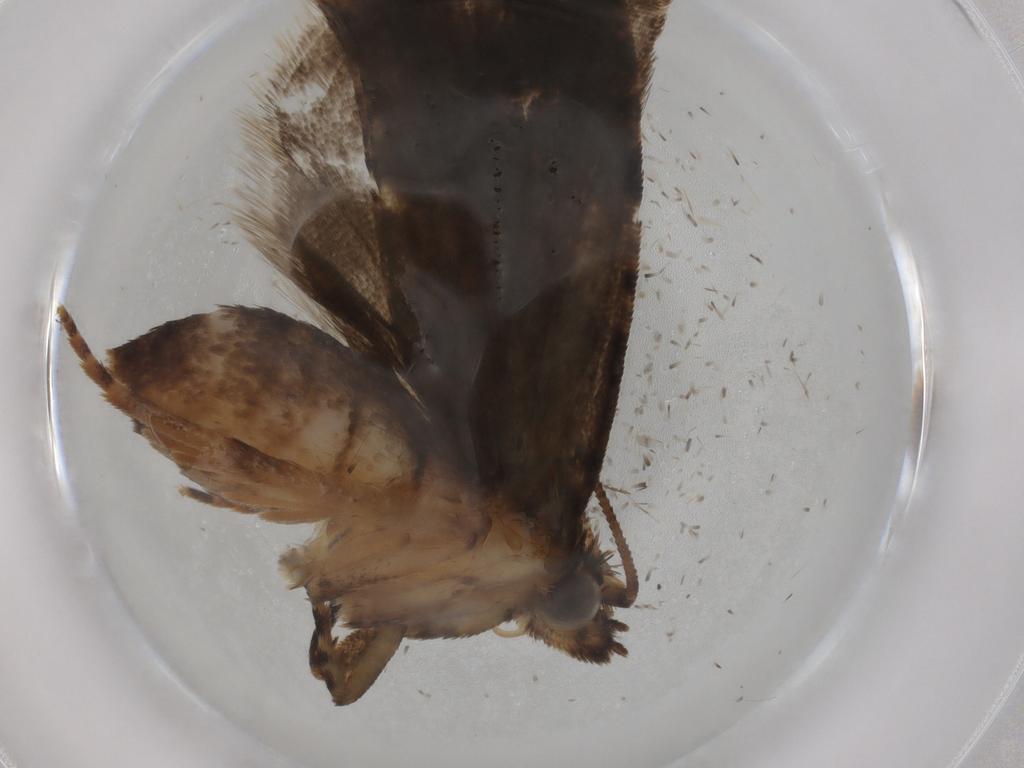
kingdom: Animalia
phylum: Arthropoda
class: Insecta
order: Lepidoptera
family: Tortricidae
